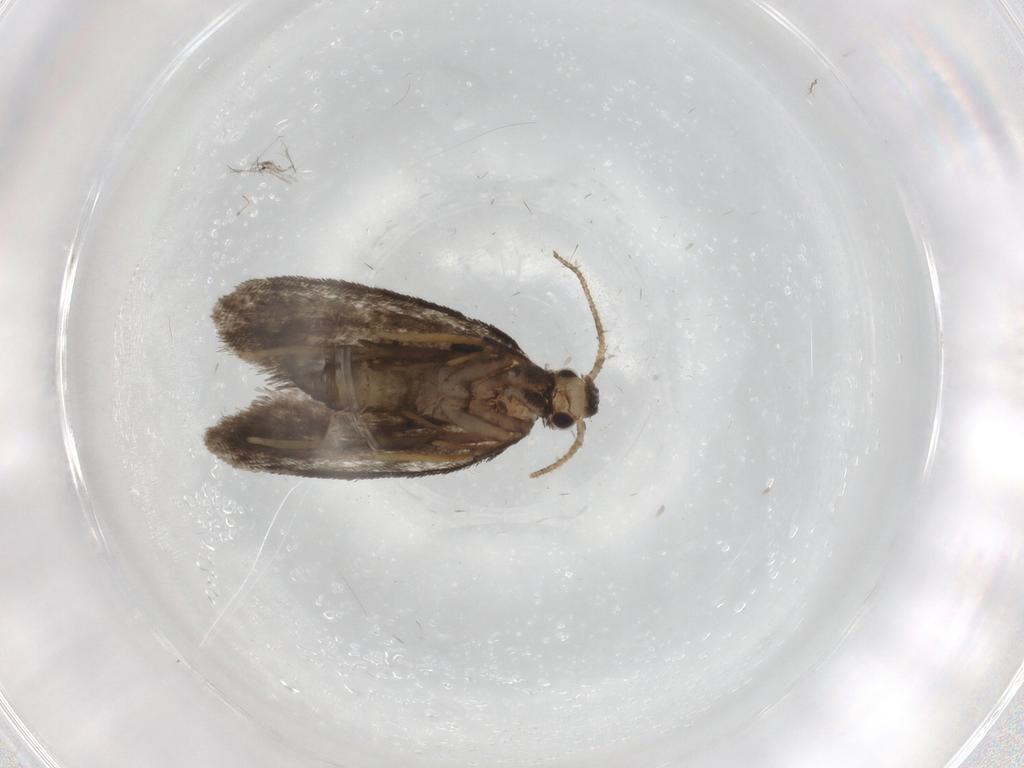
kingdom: Animalia
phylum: Arthropoda
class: Insecta
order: Lepidoptera
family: Psychidae
